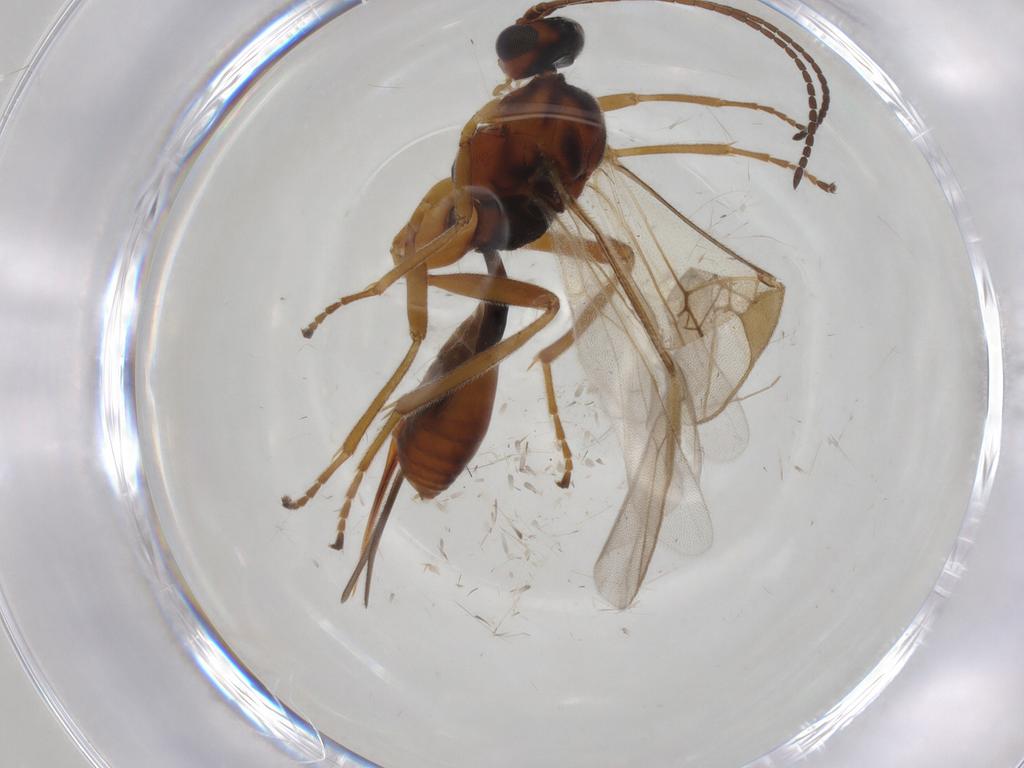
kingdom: Animalia
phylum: Arthropoda
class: Insecta
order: Hymenoptera
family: Braconidae
